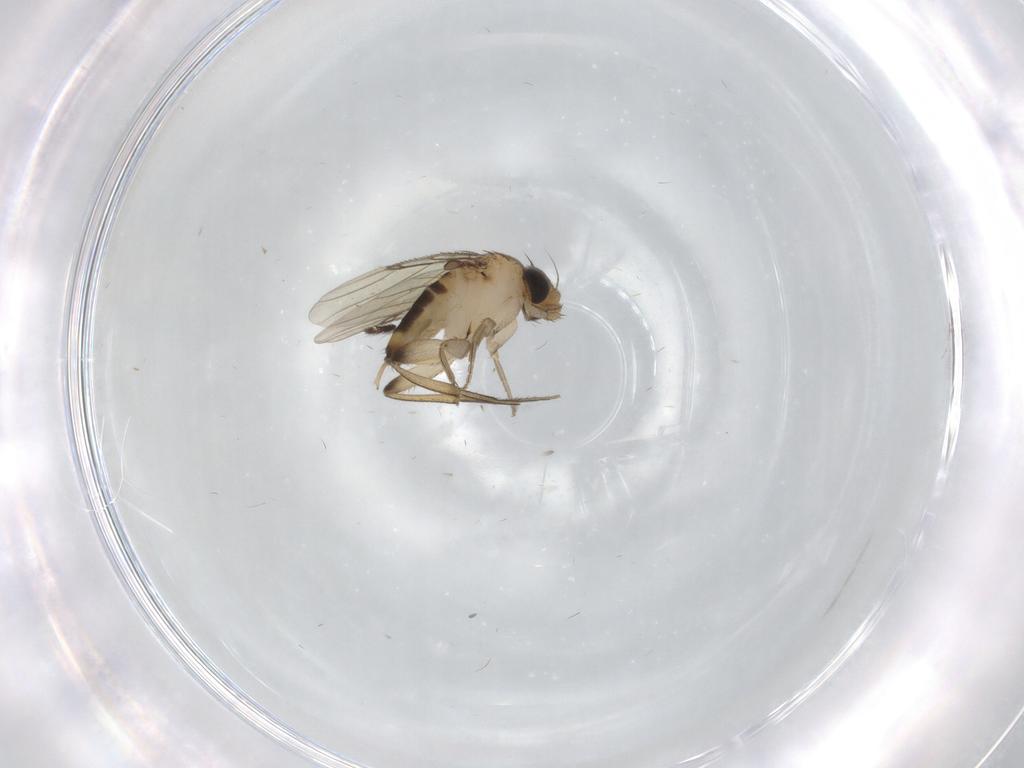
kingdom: Animalia
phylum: Arthropoda
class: Insecta
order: Diptera
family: Phoridae
